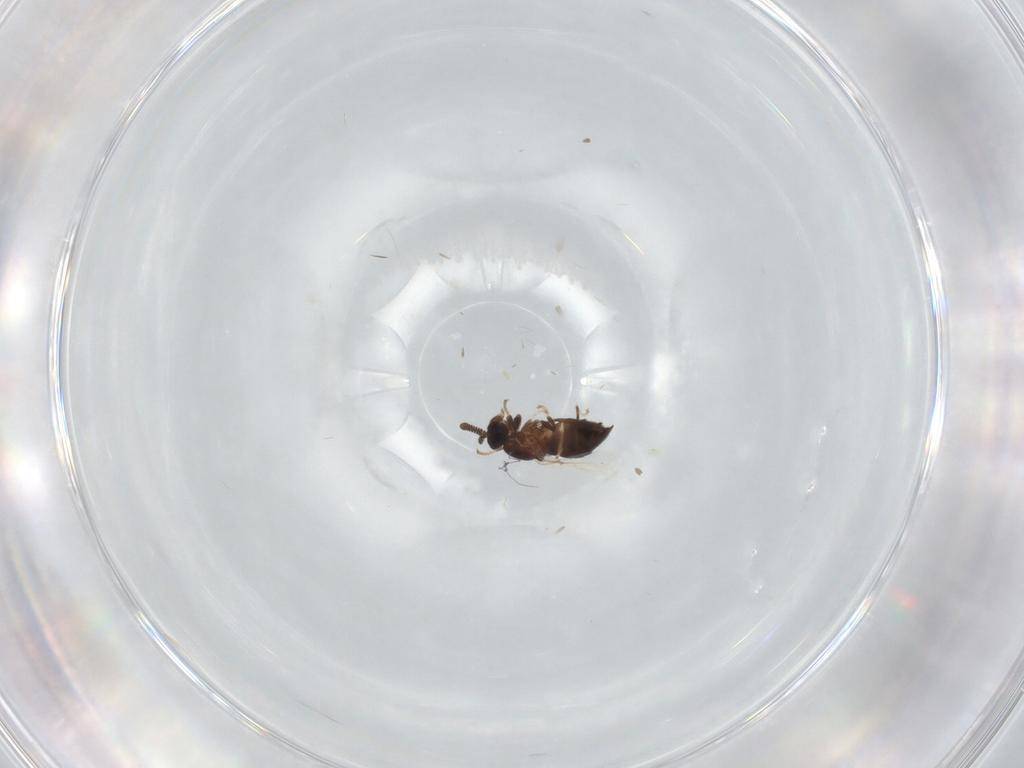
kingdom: Animalia
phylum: Arthropoda
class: Insecta
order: Diptera
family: Scatopsidae
